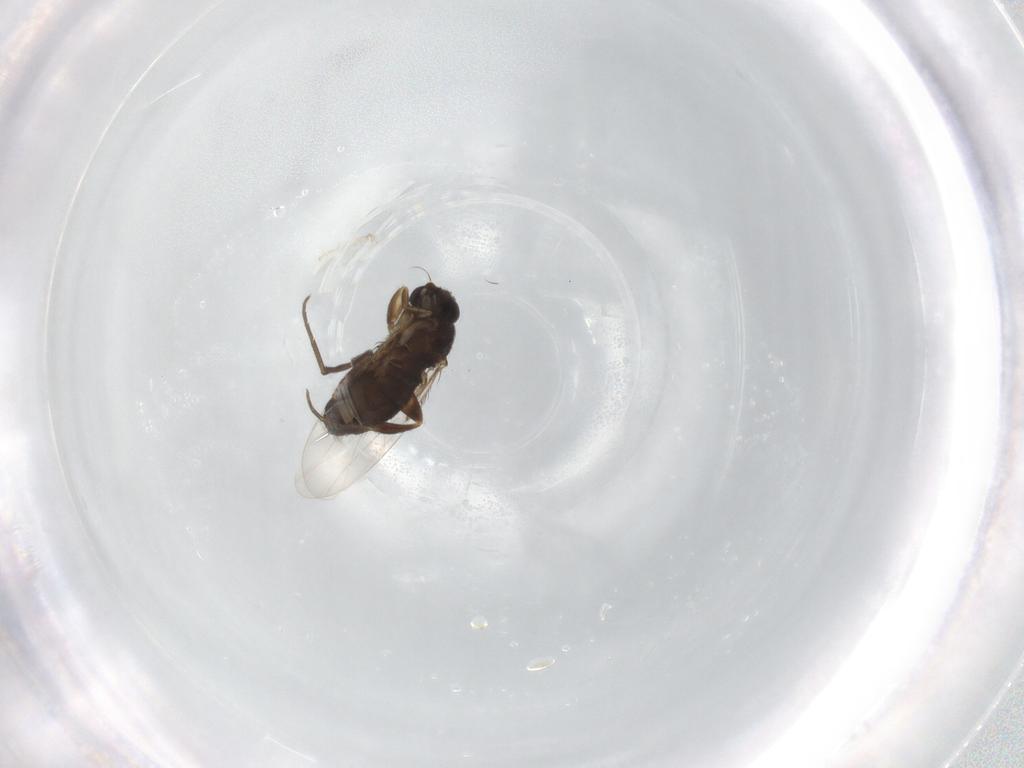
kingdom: Animalia
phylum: Arthropoda
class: Insecta
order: Diptera
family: Phoridae
